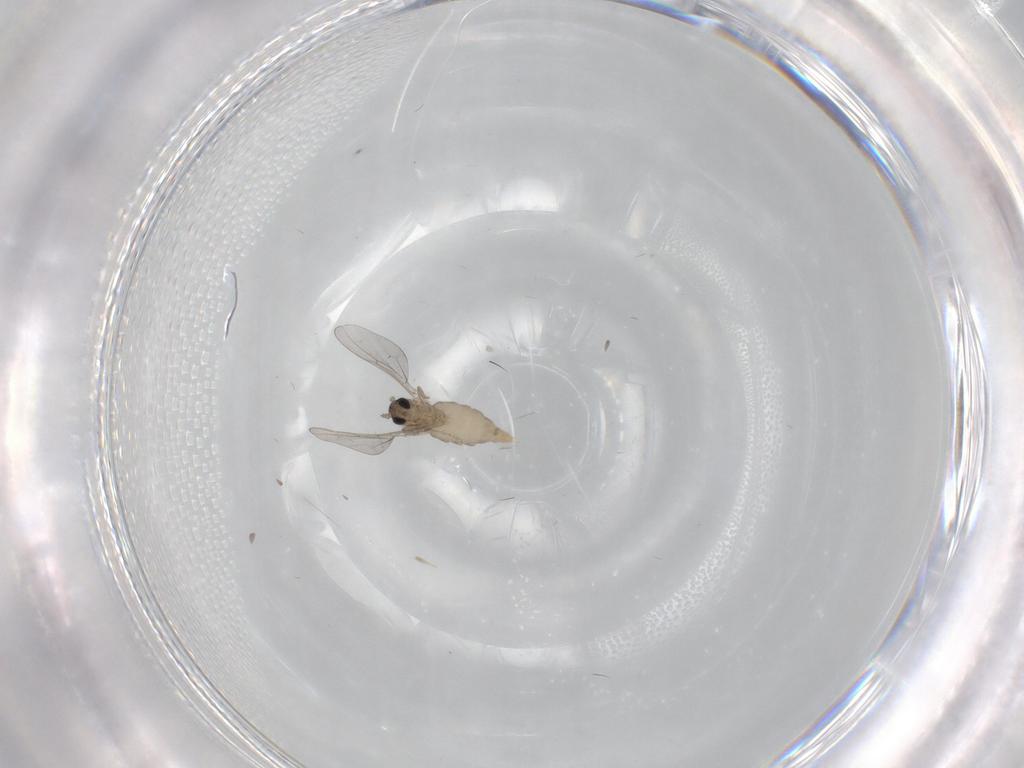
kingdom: Animalia
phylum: Arthropoda
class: Insecta
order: Diptera
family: Cecidomyiidae
